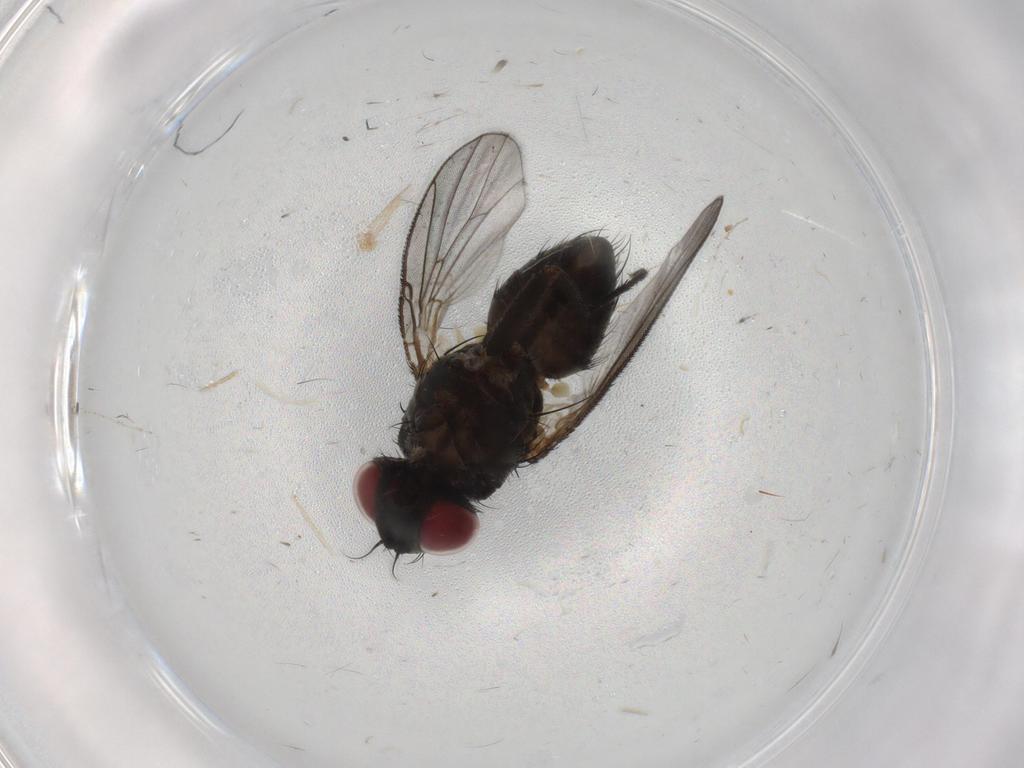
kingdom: Animalia
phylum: Arthropoda
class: Insecta
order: Diptera
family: Muscidae
